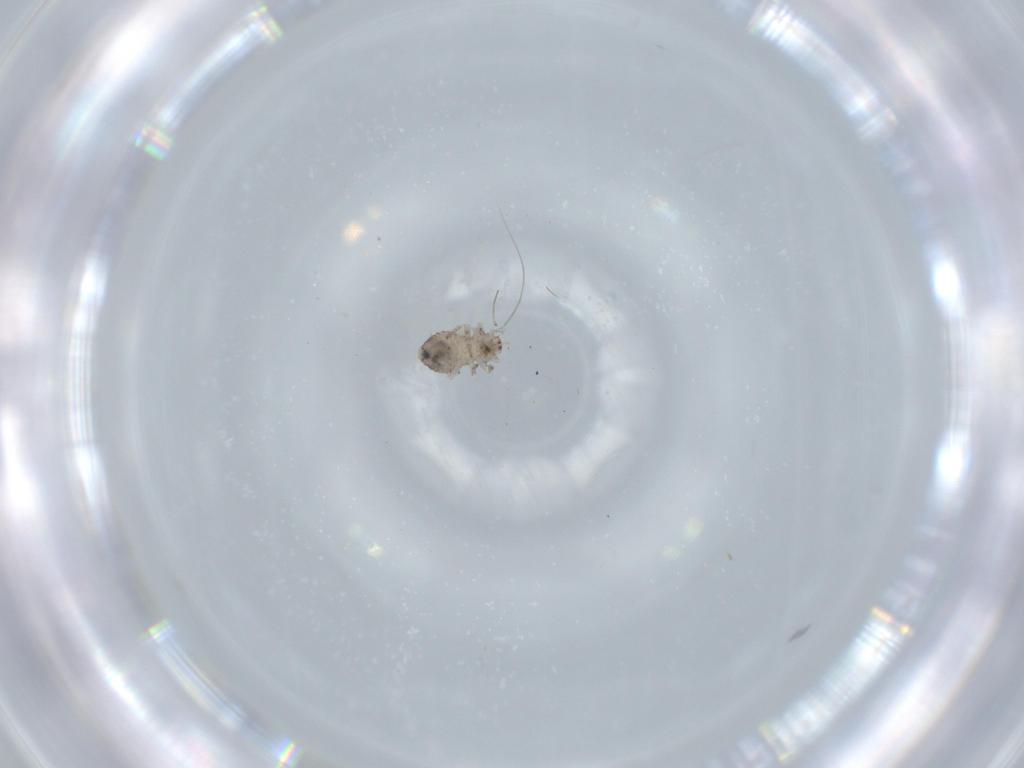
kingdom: Animalia
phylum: Arthropoda
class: Insecta
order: Psocodea
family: Psocidae
